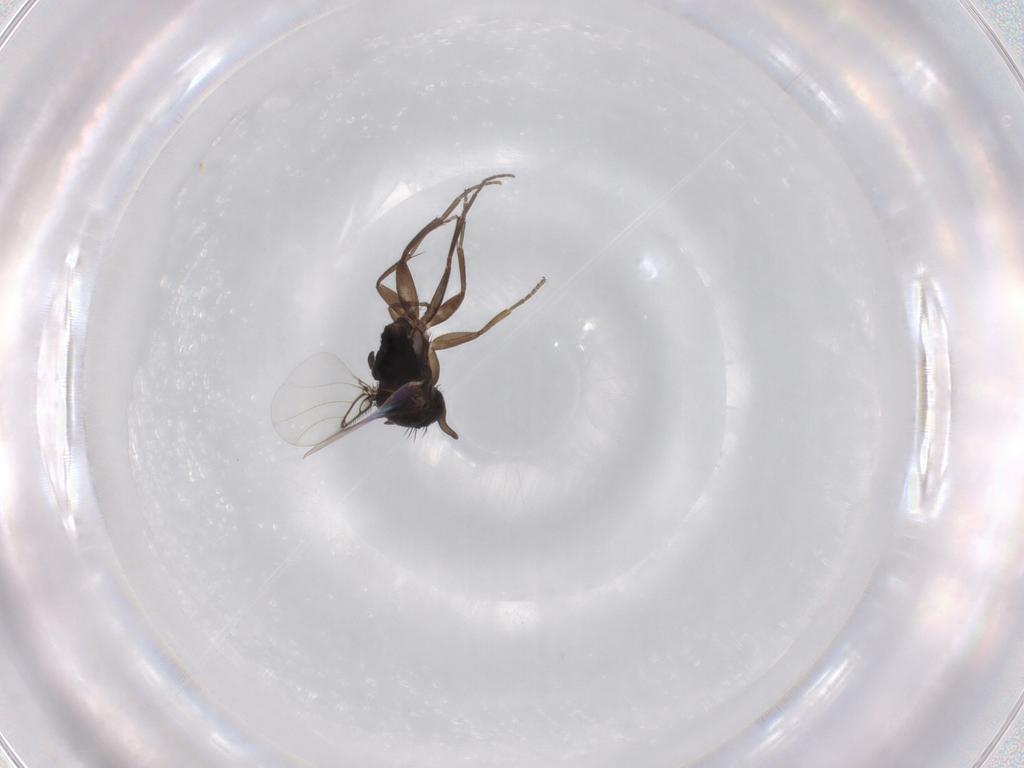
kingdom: Animalia
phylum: Arthropoda
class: Insecta
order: Diptera
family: Phoridae
